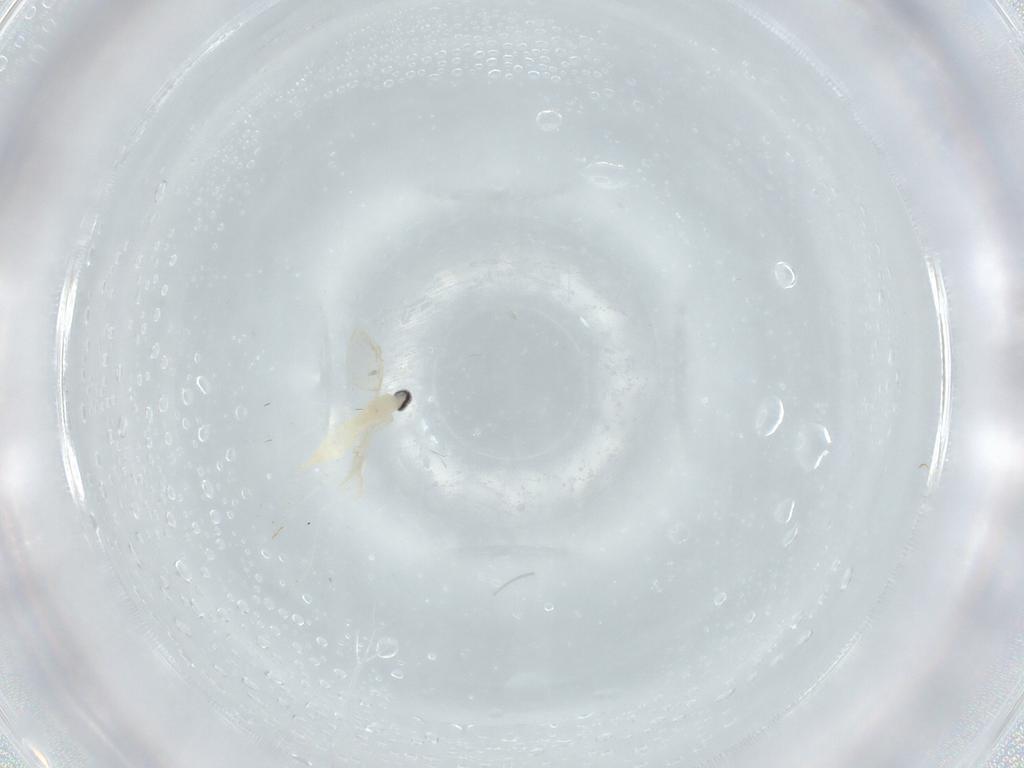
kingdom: Animalia
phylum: Arthropoda
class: Insecta
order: Diptera
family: Cecidomyiidae
